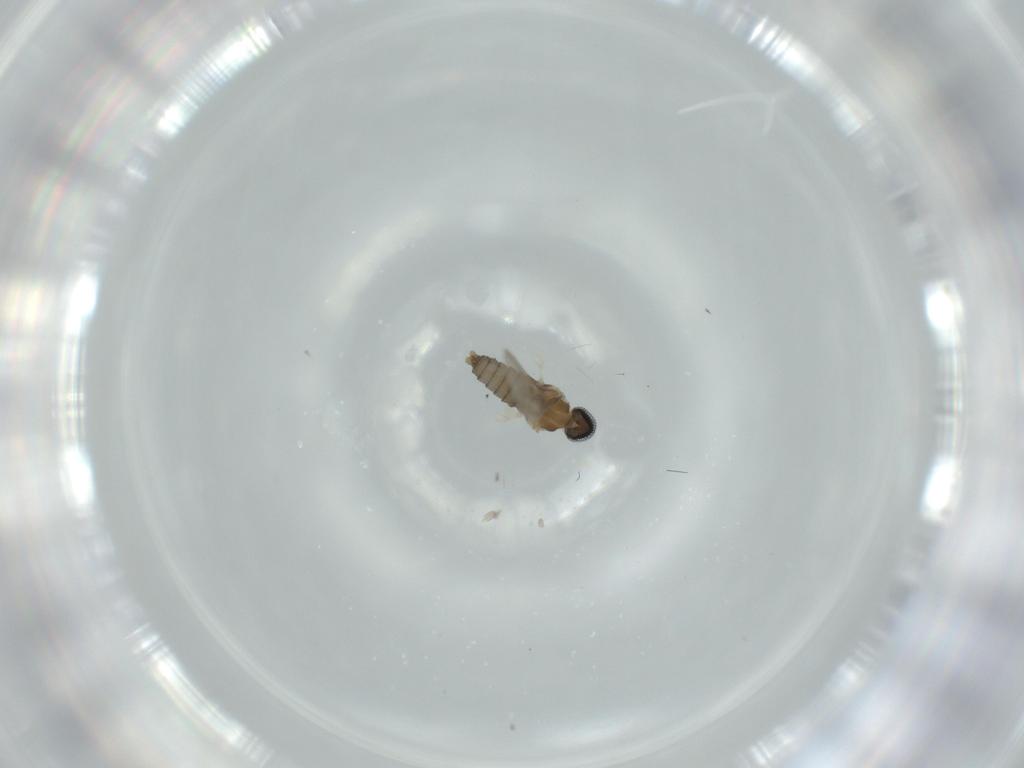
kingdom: Animalia
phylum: Arthropoda
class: Insecta
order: Diptera
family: Cecidomyiidae
